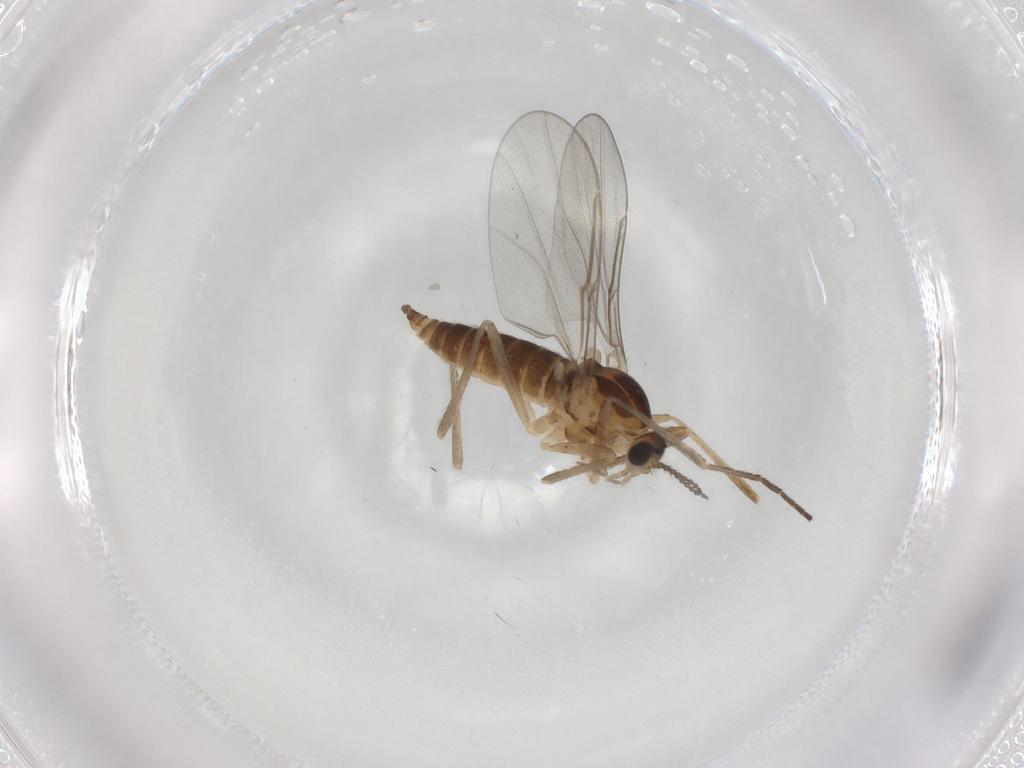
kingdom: Animalia
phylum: Arthropoda
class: Insecta
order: Diptera
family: Cecidomyiidae
